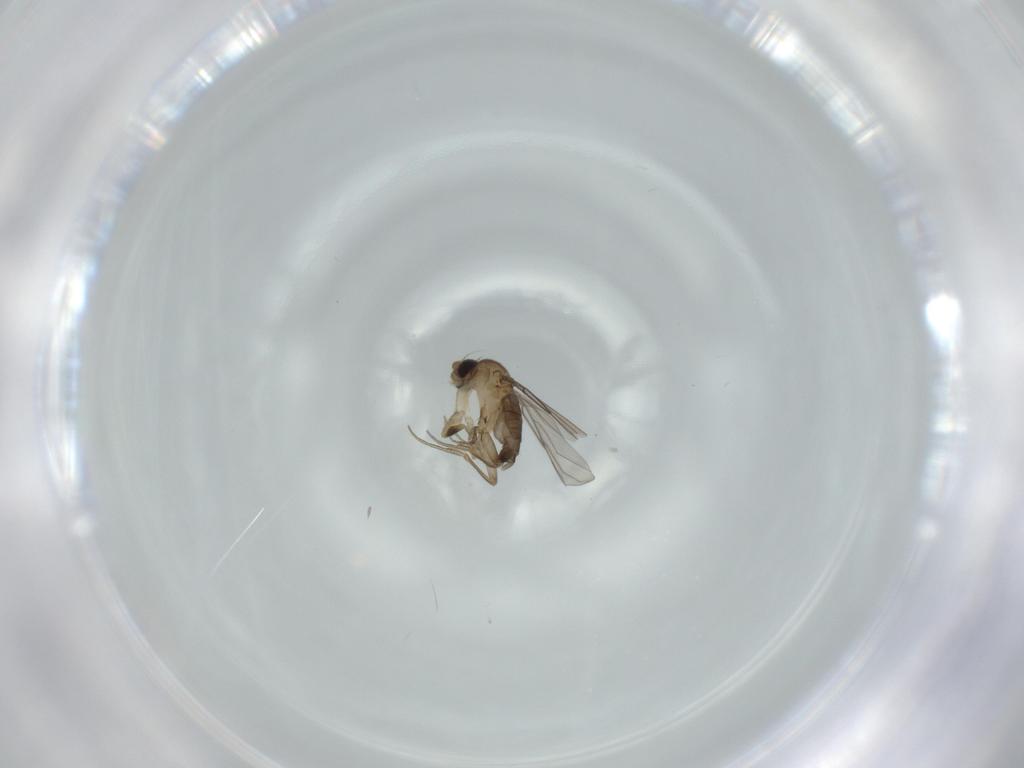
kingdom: Animalia
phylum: Arthropoda
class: Insecta
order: Diptera
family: Phoridae
